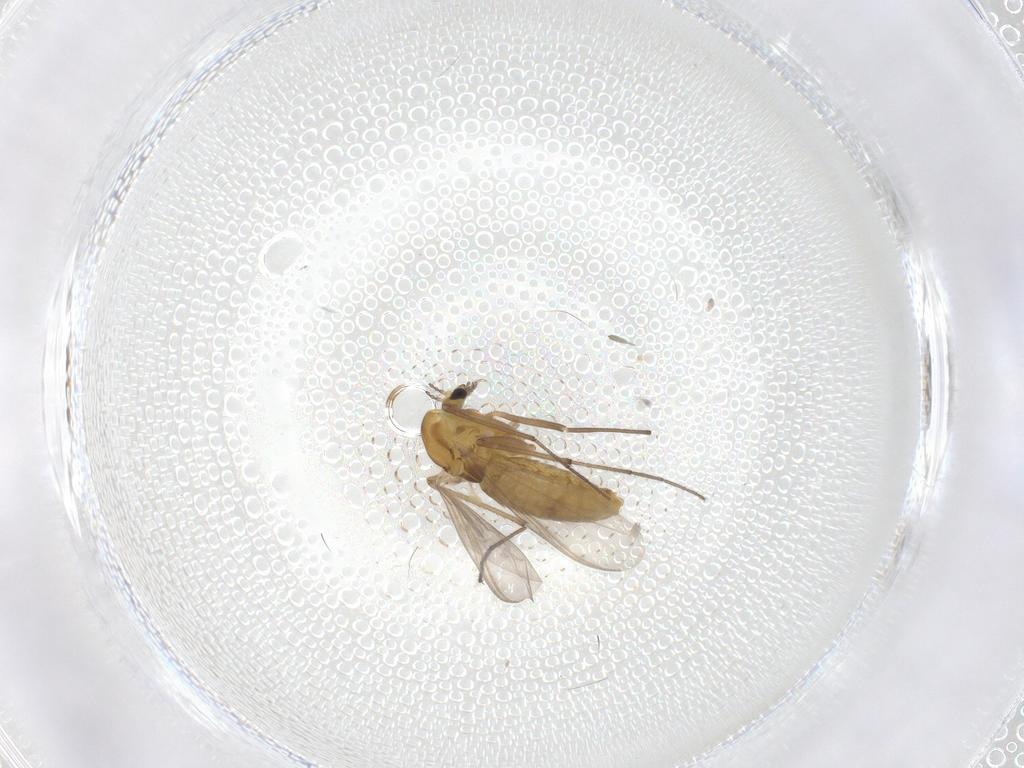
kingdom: Animalia
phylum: Arthropoda
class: Insecta
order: Diptera
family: Chironomidae
